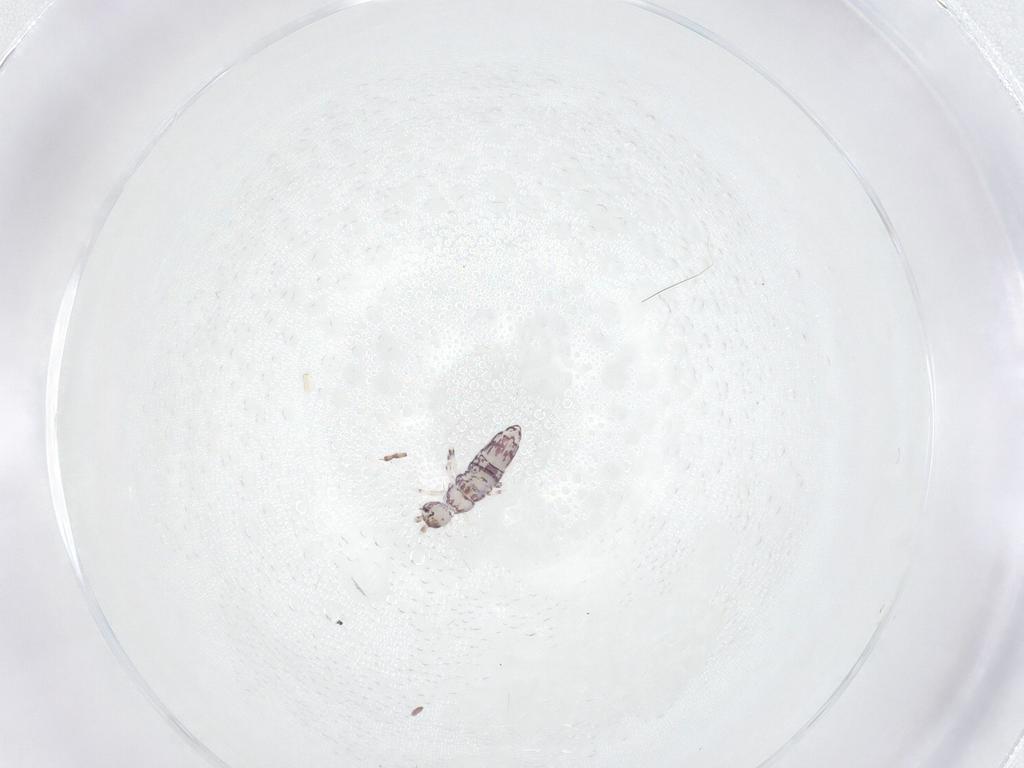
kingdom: Animalia
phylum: Arthropoda
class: Collembola
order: Entomobryomorpha
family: Entomobryidae
